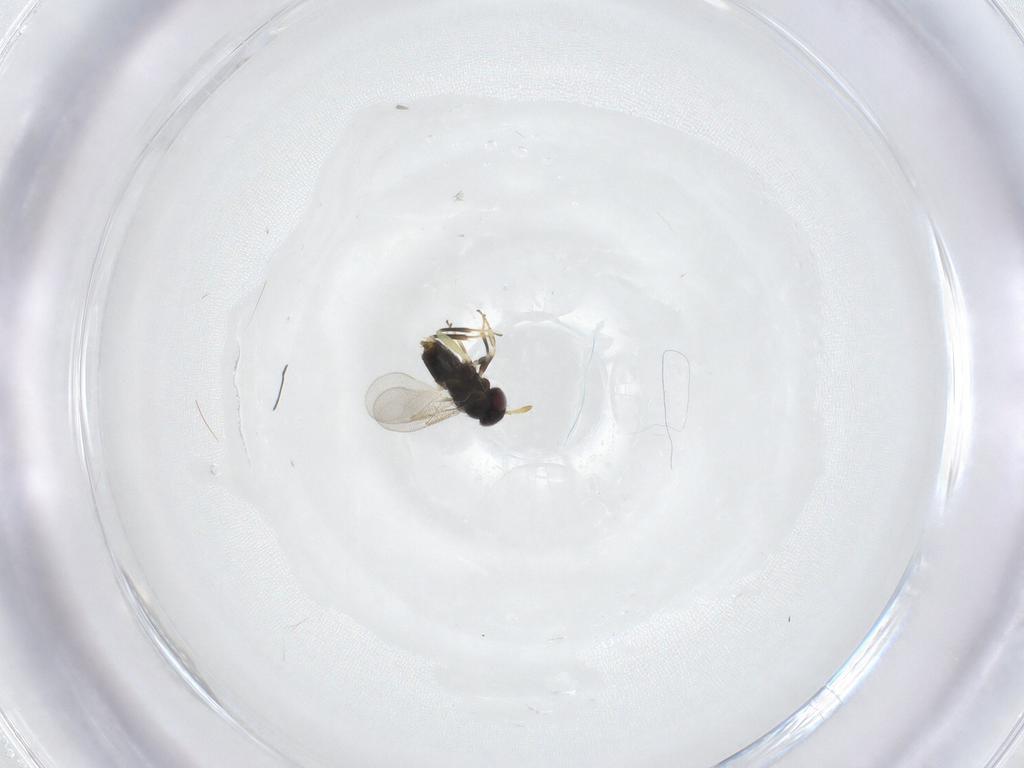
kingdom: Animalia
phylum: Arthropoda
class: Insecta
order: Hymenoptera
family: Aphelinidae
